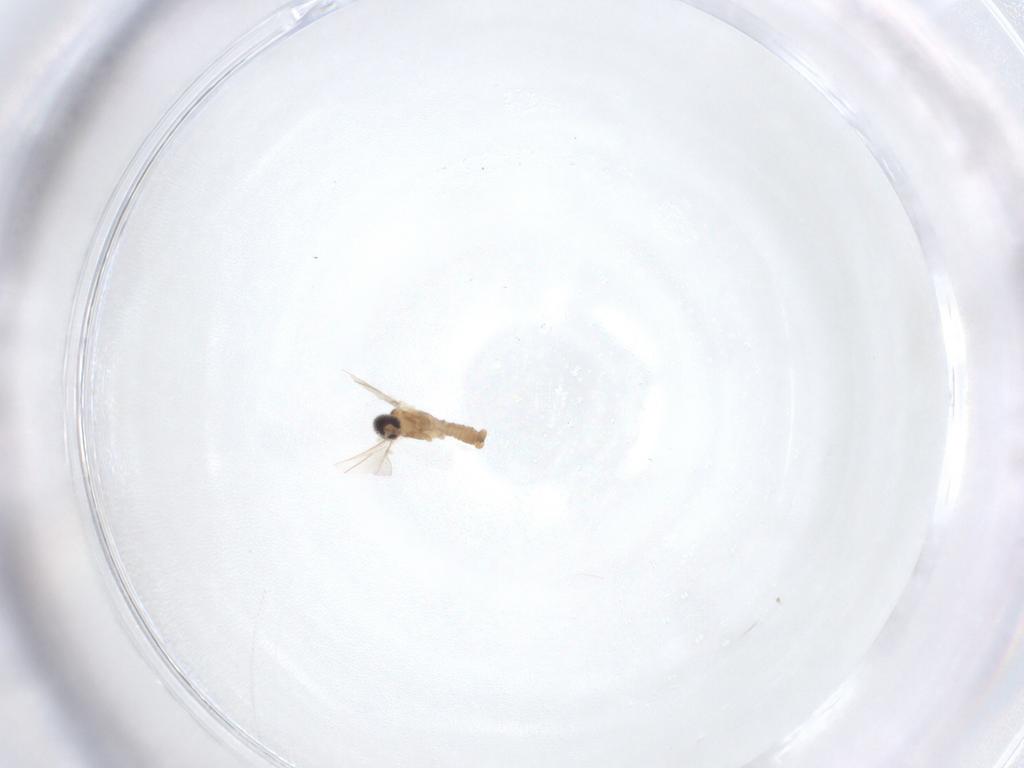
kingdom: Animalia
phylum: Arthropoda
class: Insecta
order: Diptera
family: Cecidomyiidae
